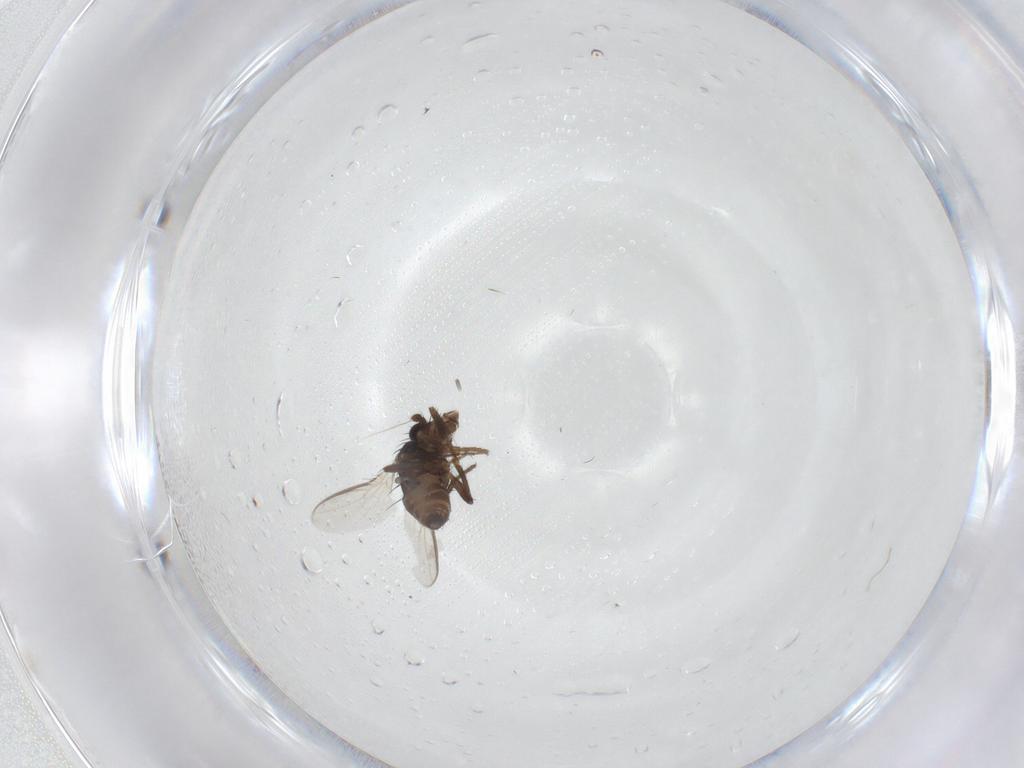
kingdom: Animalia
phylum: Arthropoda
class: Insecta
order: Diptera
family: Sphaeroceridae
